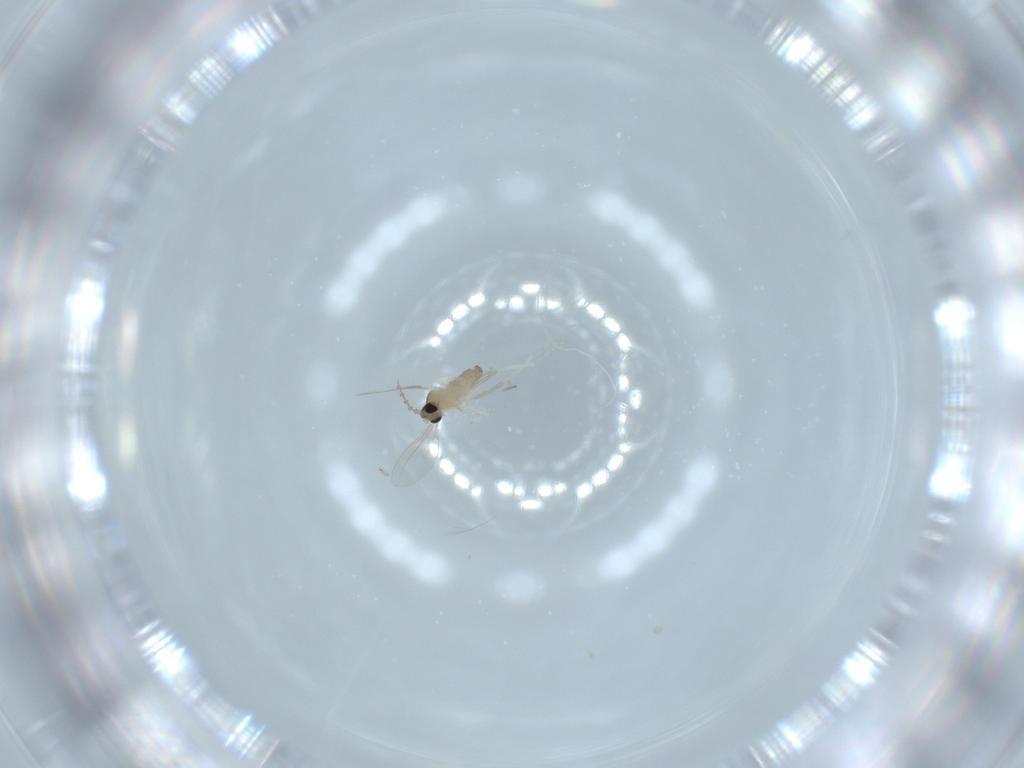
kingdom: Animalia
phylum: Arthropoda
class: Insecta
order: Diptera
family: Cecidomyiidae
